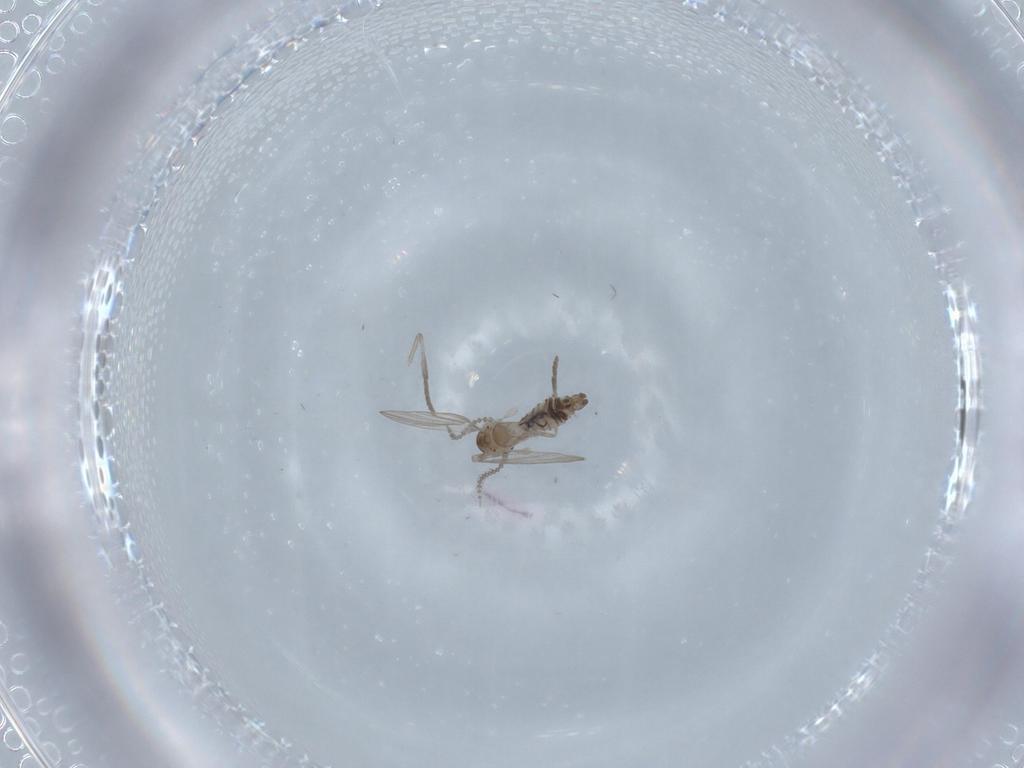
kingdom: Animalia
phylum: Arthropoda
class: Insecta
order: Diptera
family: Psychodidae
